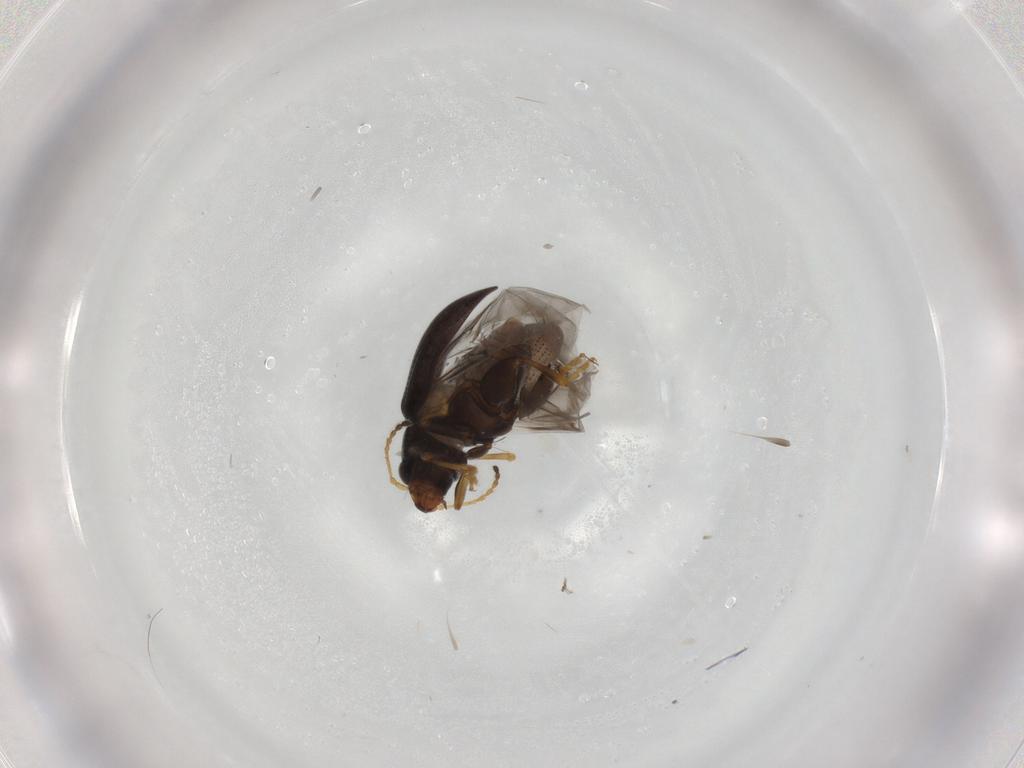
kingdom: Animalia
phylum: Arthropoda
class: Insecta
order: Coleoptera
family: Chrysomelidae
